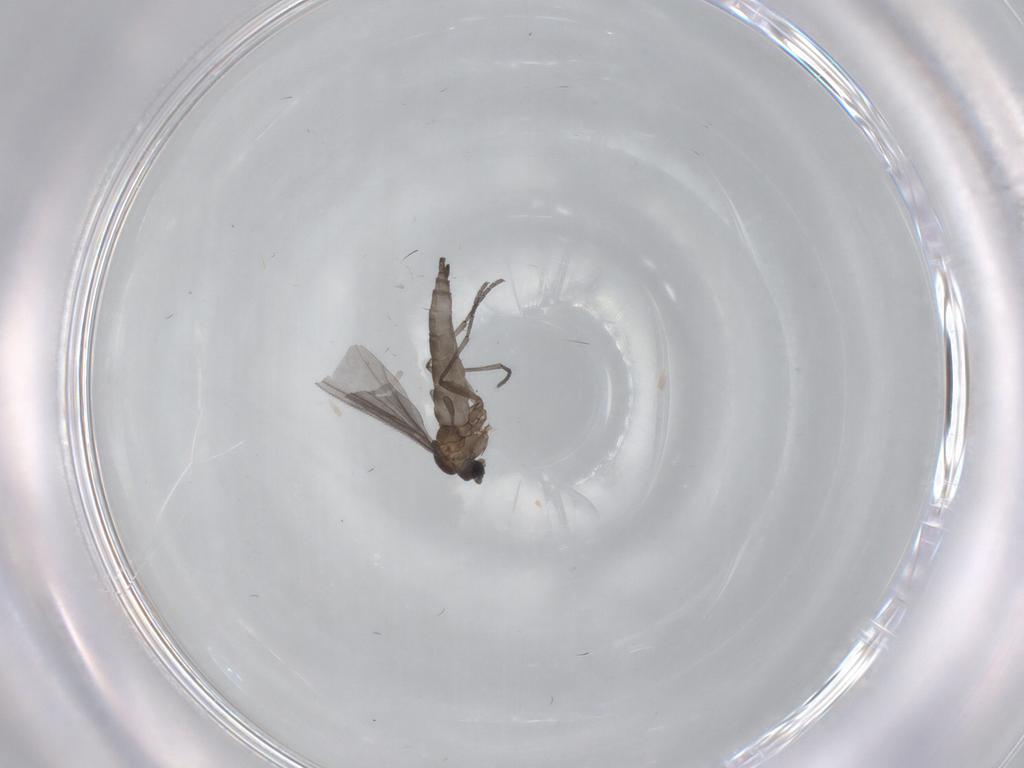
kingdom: Animalia
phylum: Arthropoda
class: Insecta
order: Diptera
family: Sciaridae
